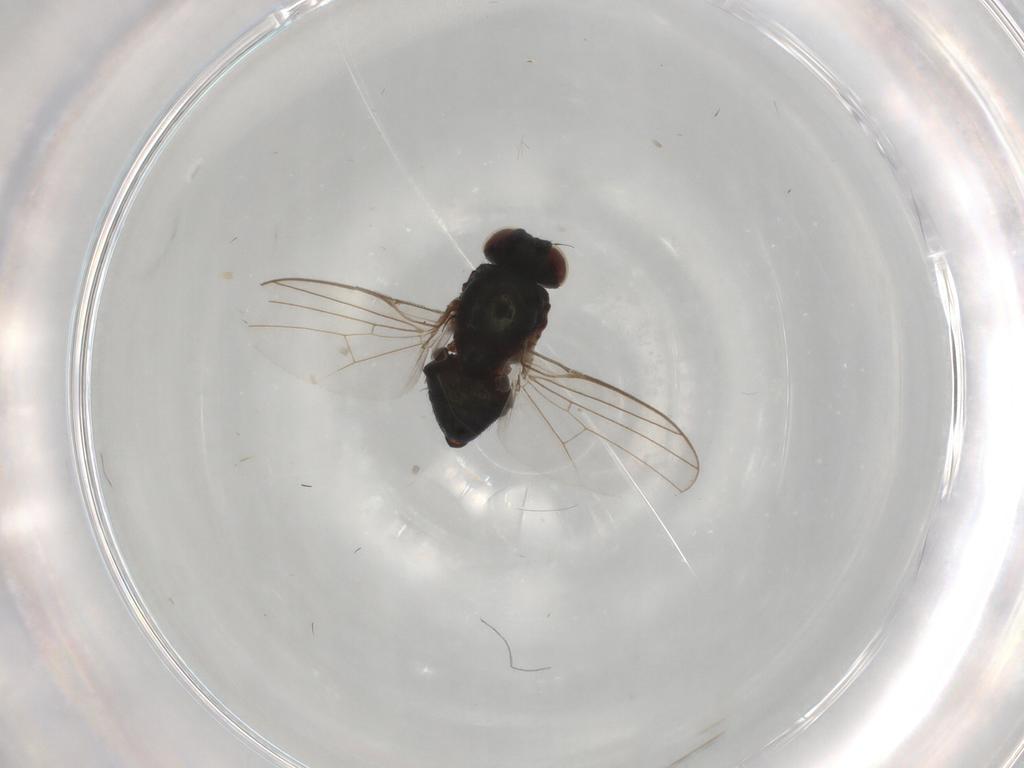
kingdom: Animalia
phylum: Arthropoda
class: Insecta
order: Diptera
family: Agromyzidae
